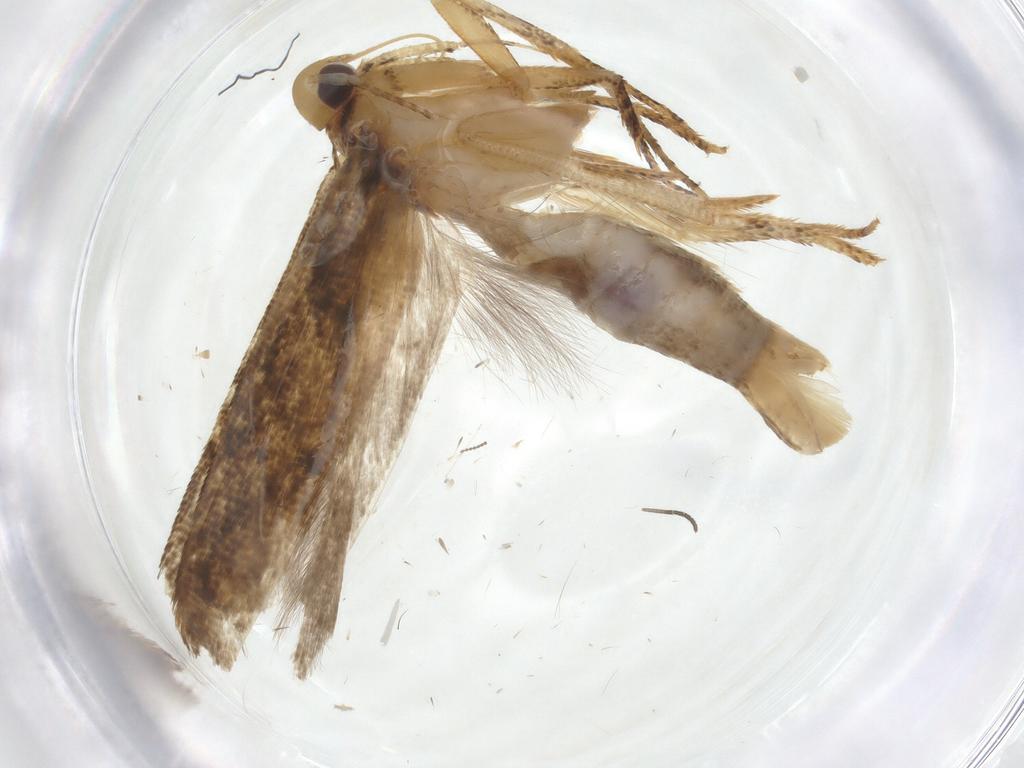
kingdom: Animalia
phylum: Arthropoda
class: Insecta
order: Lepidoptera
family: Gelechiidae
